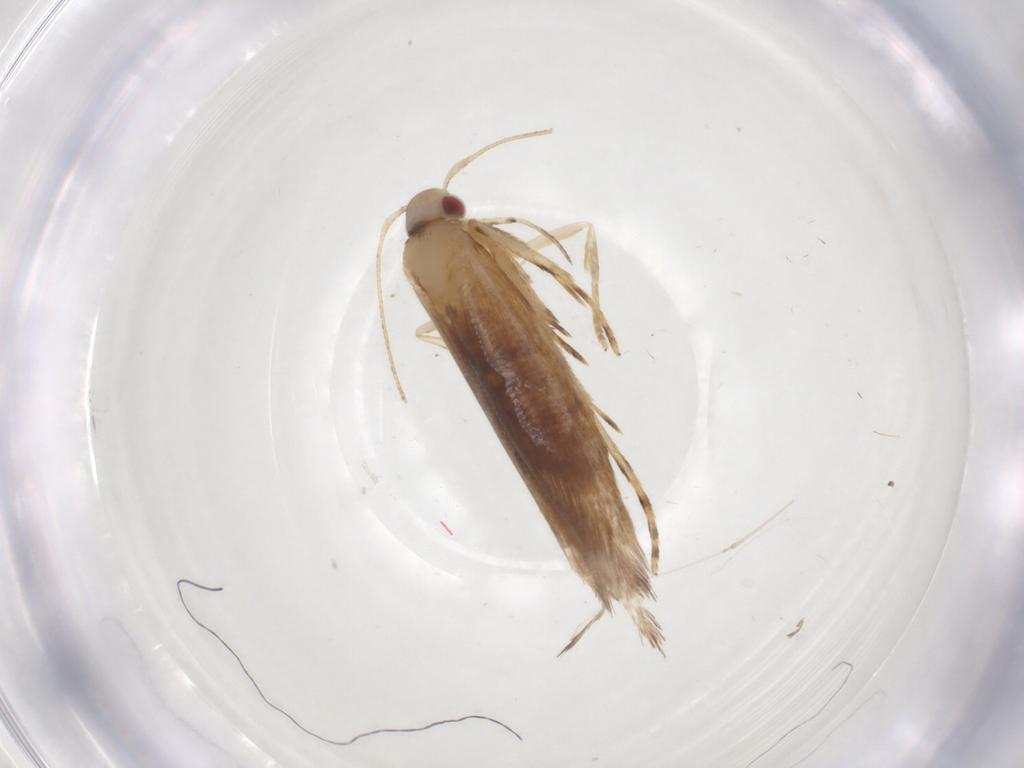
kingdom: Animalia
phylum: Arthropoda
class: Insecta
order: Lepidoptera
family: Cosmopterigidae
